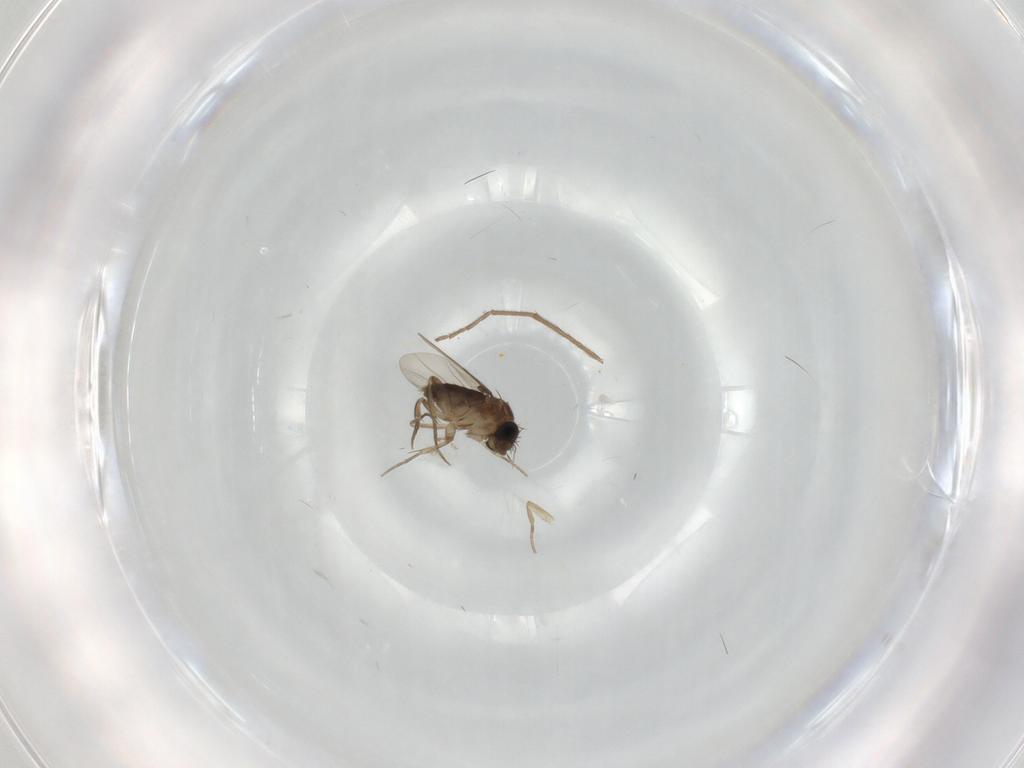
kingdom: Animalia
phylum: Arthropoda
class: Insecta
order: Diptera
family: Phoridae
